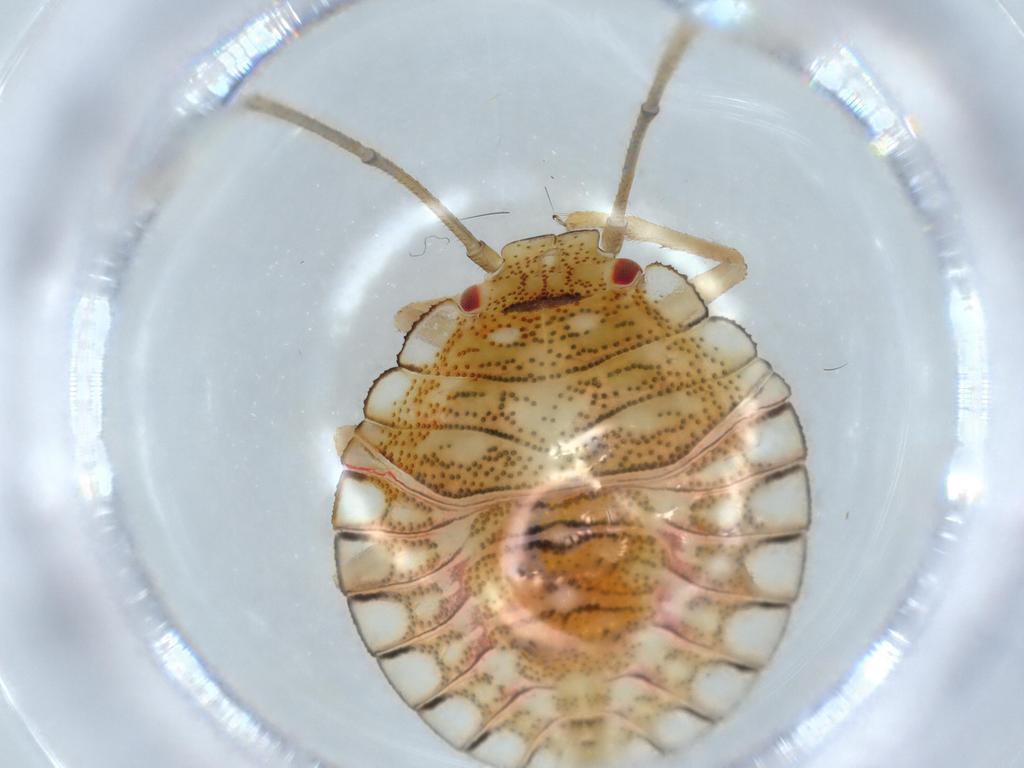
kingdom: Animalia
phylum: Arthropoda
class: Insecta
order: Hemiptera
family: Pentatomidae
